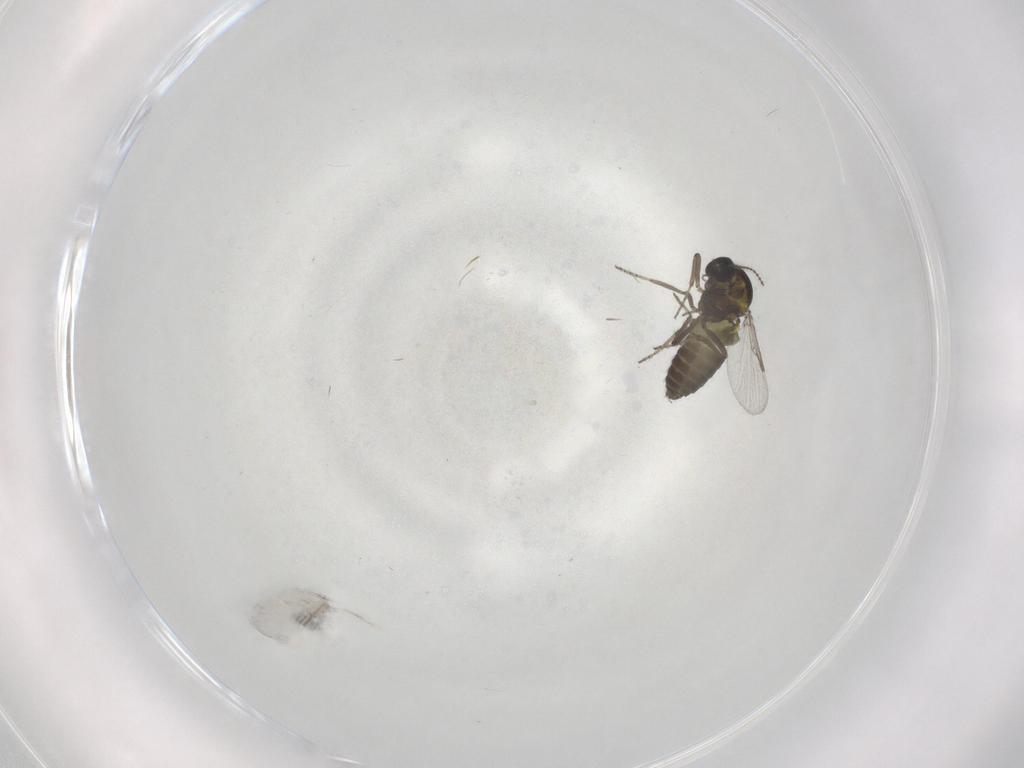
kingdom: Animalia
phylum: Arthropoda
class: Insecta
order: Diptera
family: Ceratopogonidae
